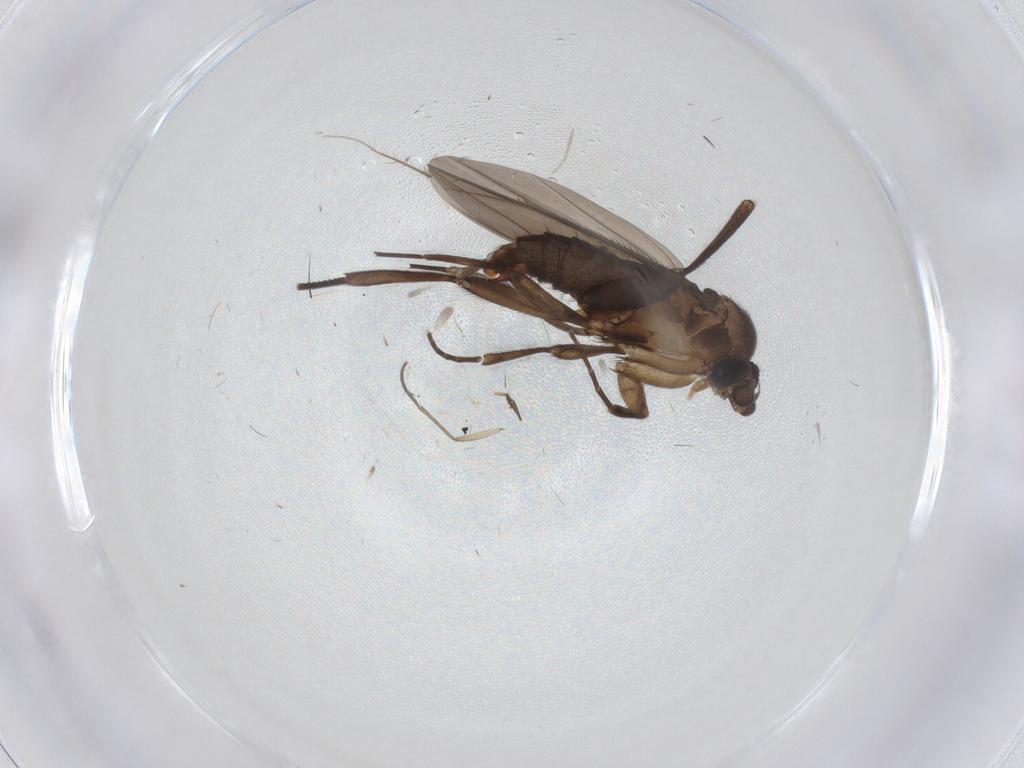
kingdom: Animalia
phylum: Arthropoda
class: Insecta
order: Diptera
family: Phoridae
